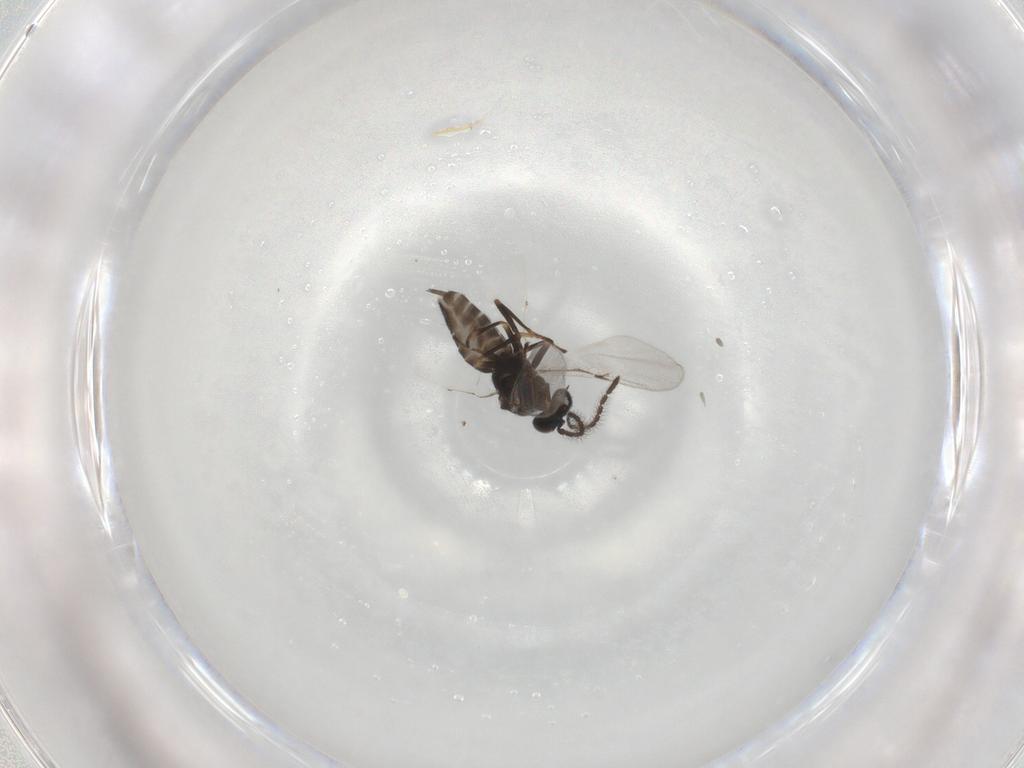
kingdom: Animalia
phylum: Arthropoda
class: Insecta
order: Hymenoptera
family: Encyrtidae
